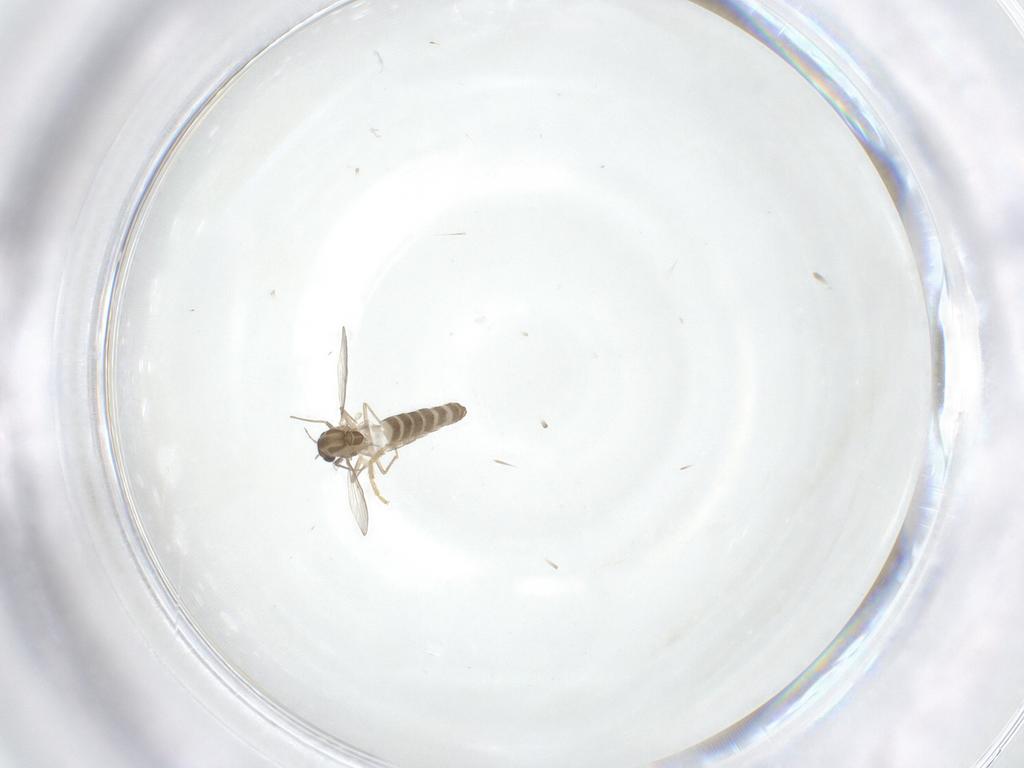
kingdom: Animalia
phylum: Arthropoda
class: Insecta
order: Diptera
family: Chironomidae
